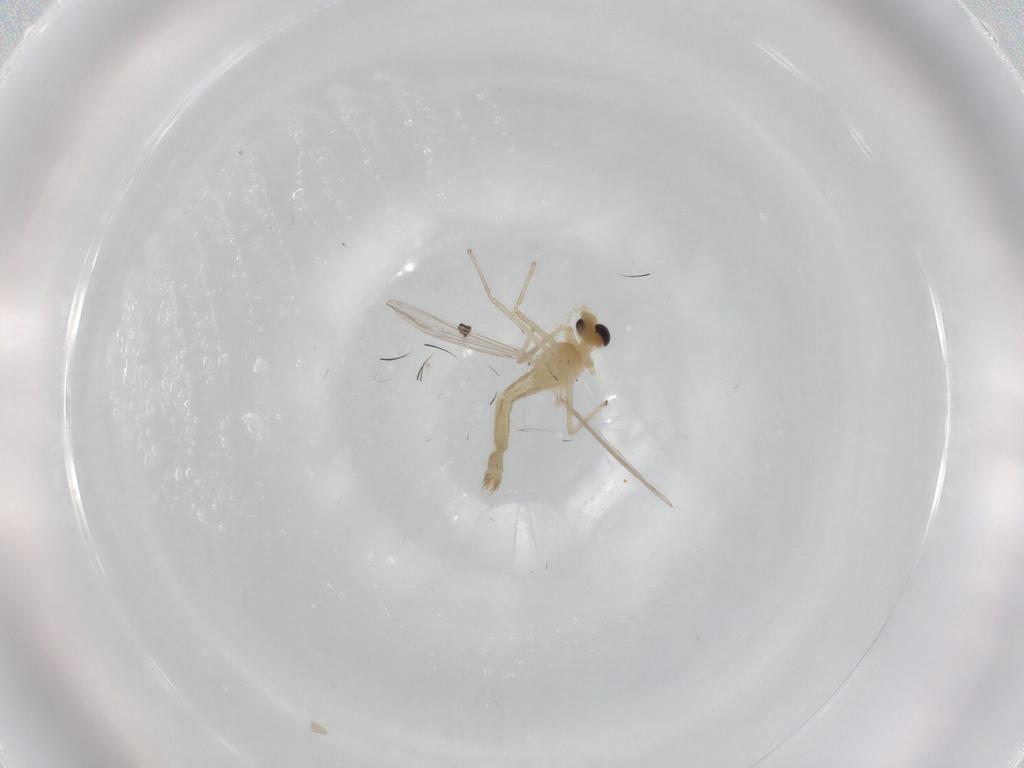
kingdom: Animalia
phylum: Arthropoda
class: Insecta
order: Diptera
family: Chironomidae
